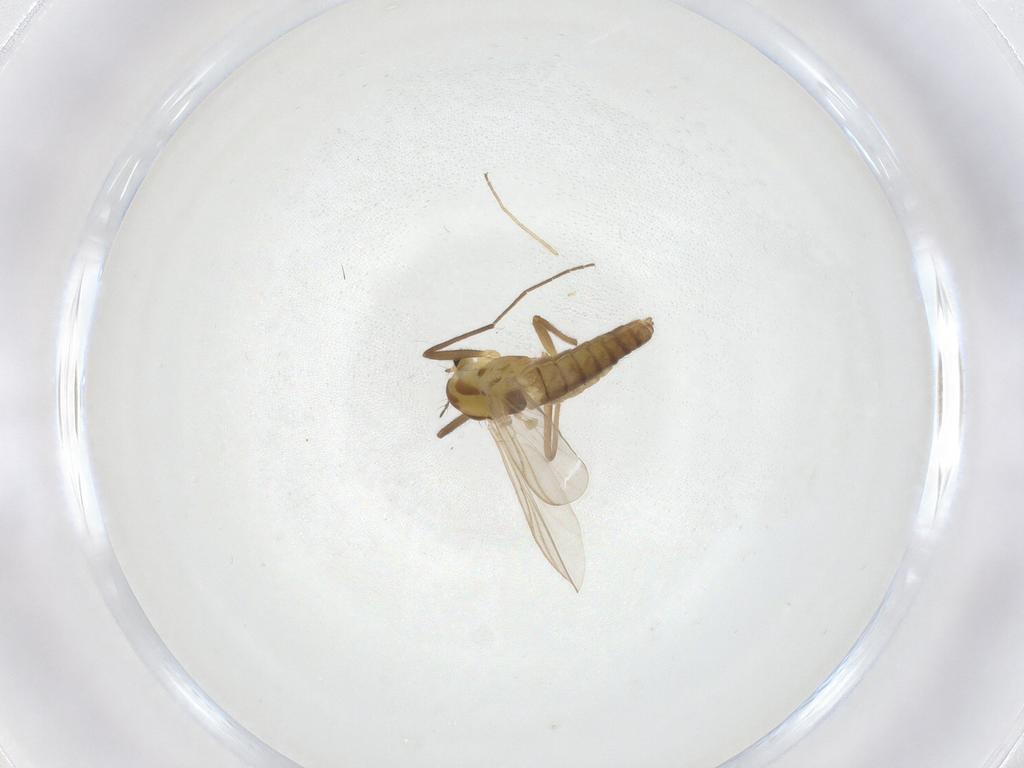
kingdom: Animalia
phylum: Arthropoda
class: Insecta
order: Diptera
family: Chironomidae
